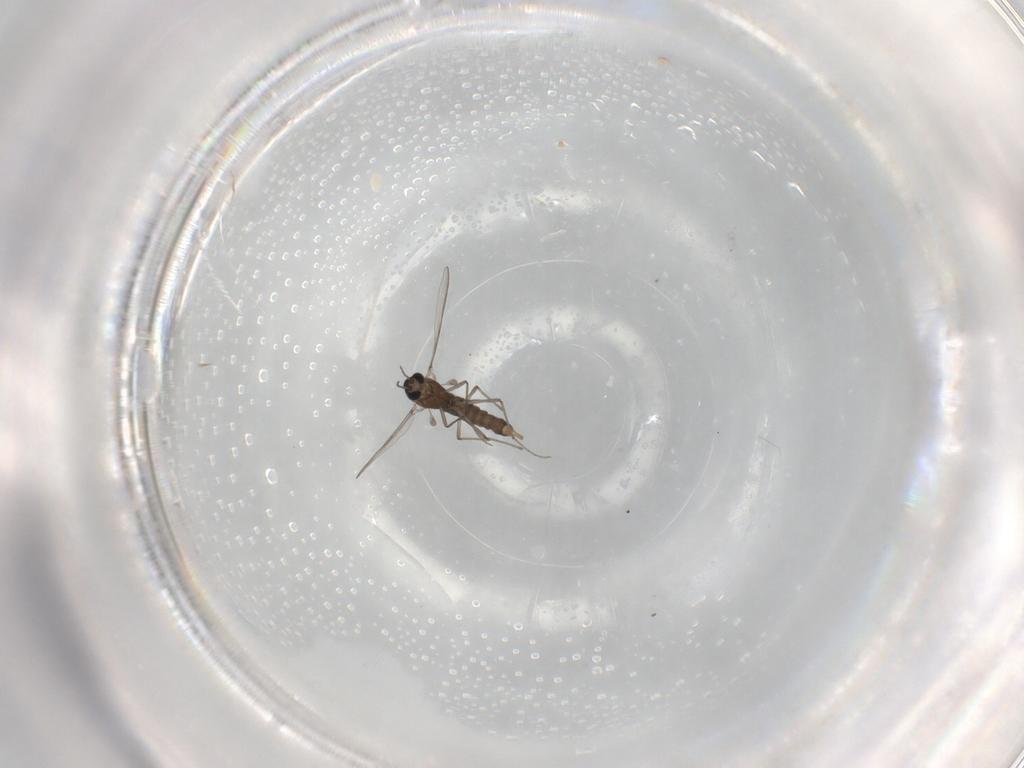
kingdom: Animalia
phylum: Arthropoda
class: Insecta
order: Diptera
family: Chironomidae
